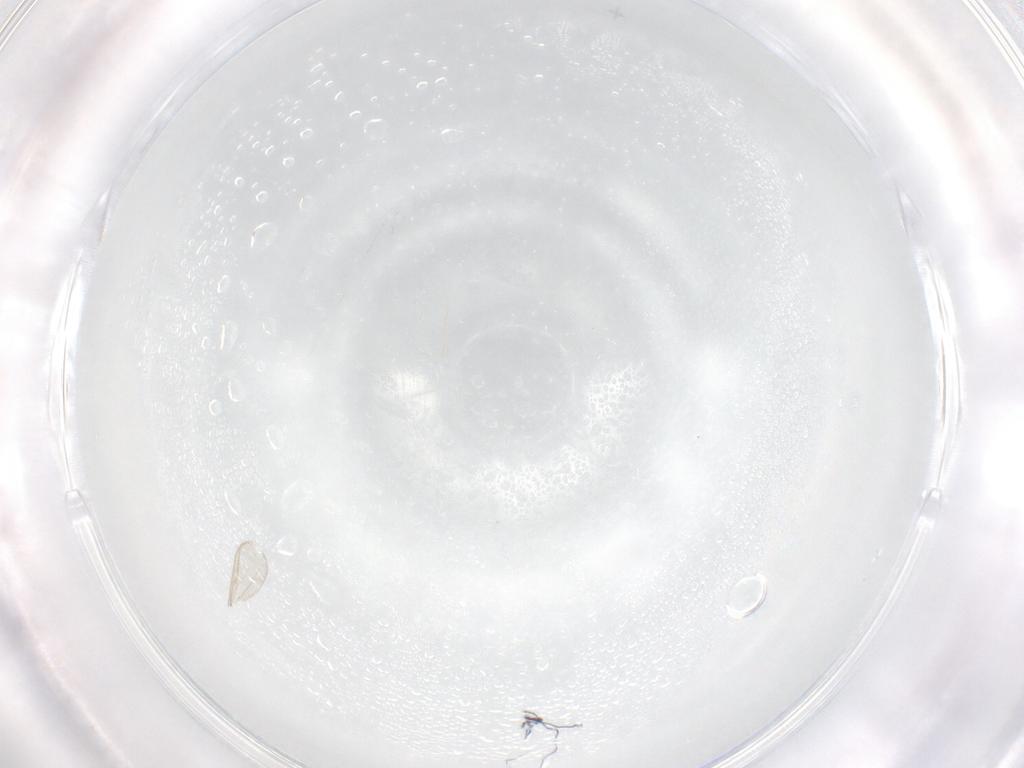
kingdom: Animalia
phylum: Arthropoda
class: Insecta
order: Diptera
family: Chironomidae
